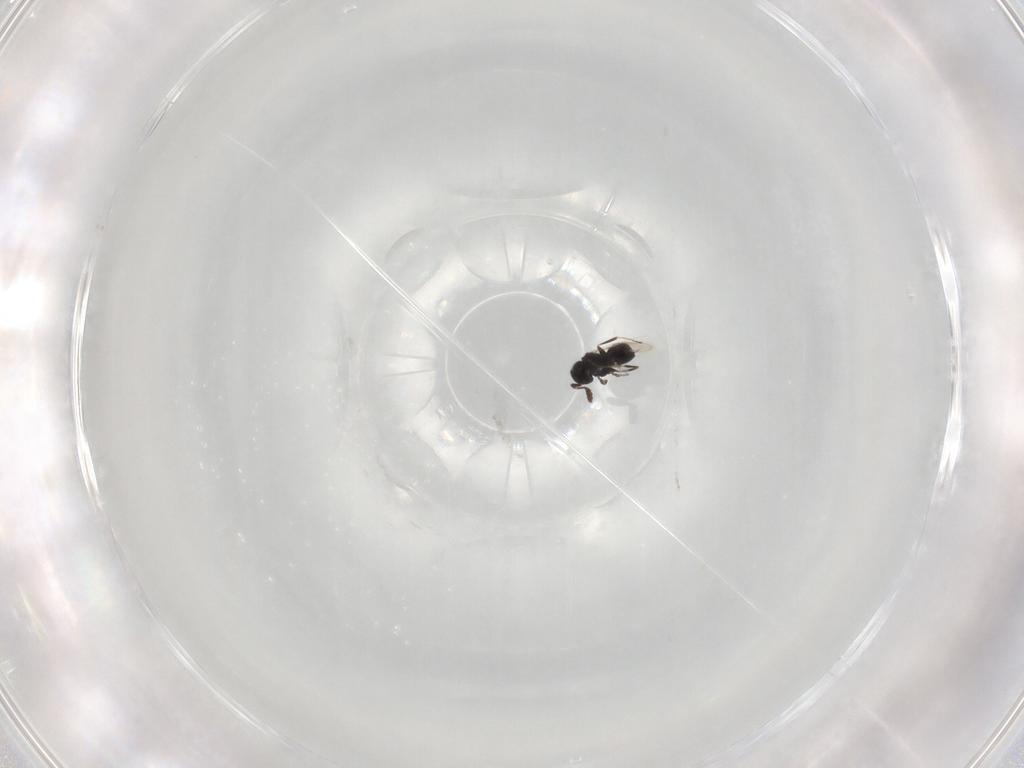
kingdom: Animalia
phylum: Arthropoda
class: Insecta
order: Hymenoptera
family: Scelionidae
